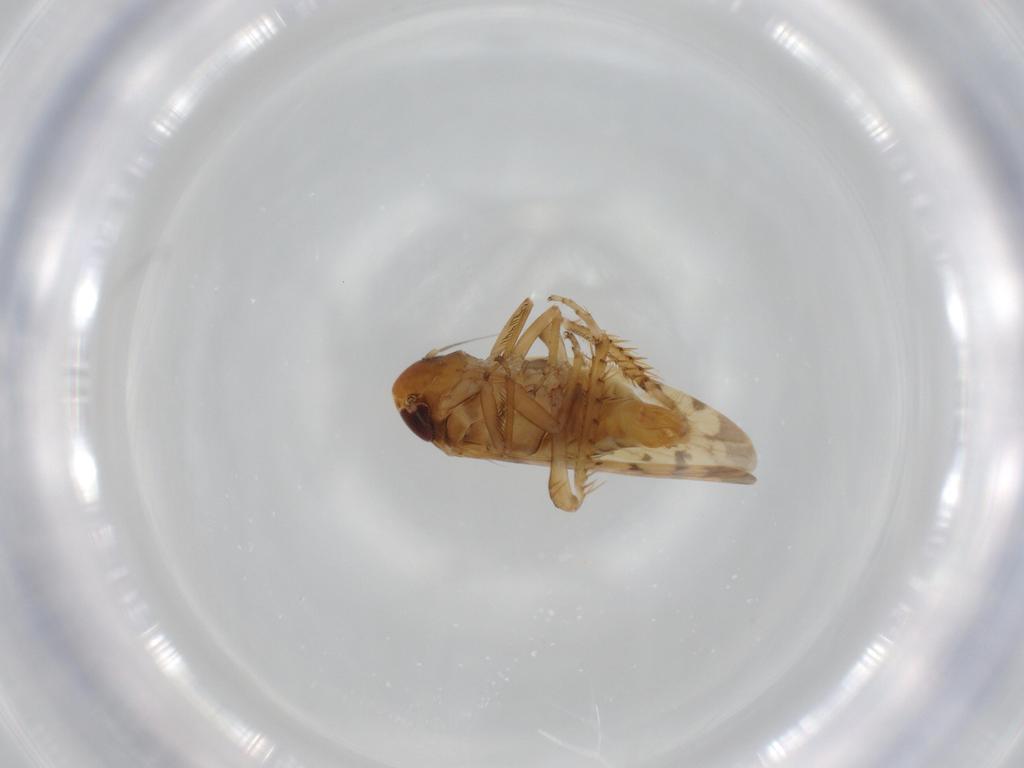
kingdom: Animalia
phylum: Arthropoda
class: Insecta
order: Hemiptera
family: Cicadellidae
